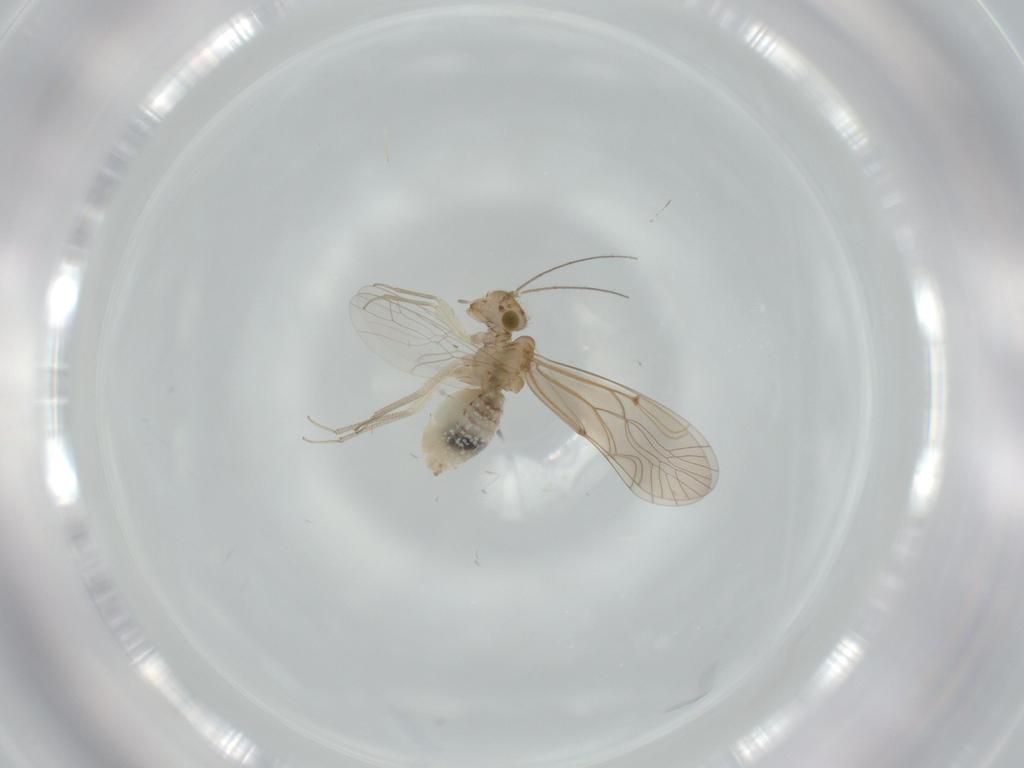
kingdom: Animalia
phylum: Arthropoda
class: Insecta
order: Psocodea
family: Lachesillidae
